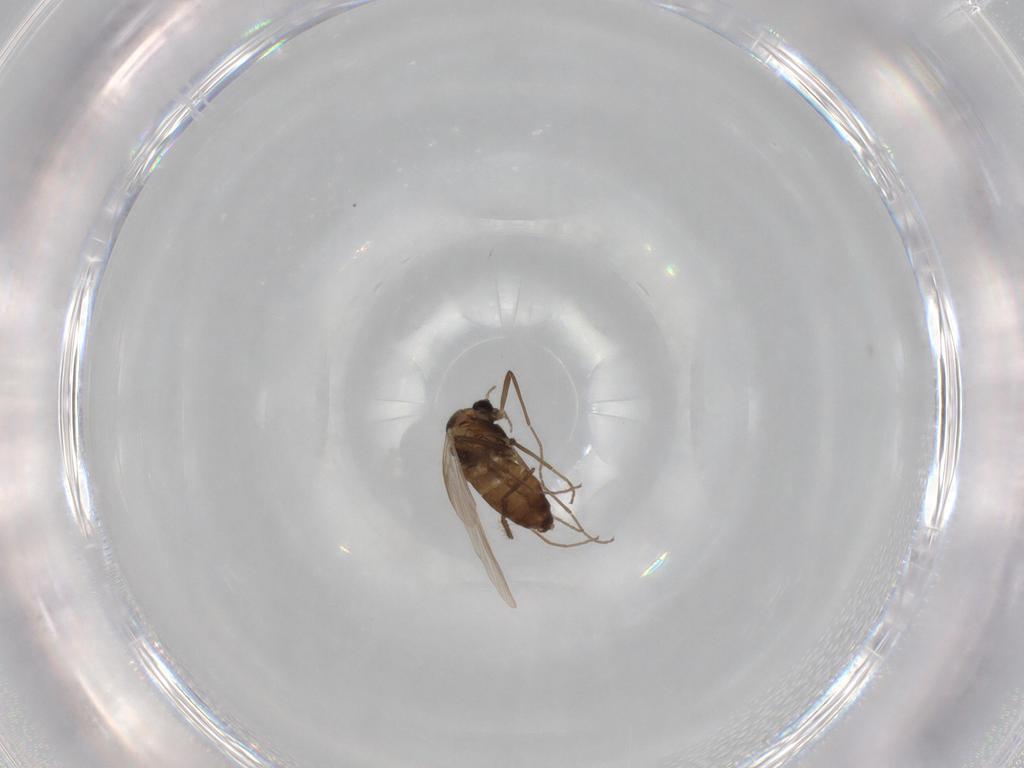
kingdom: Animalia
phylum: Arthropoda
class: Insecta
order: Diptera
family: Chironomidae
